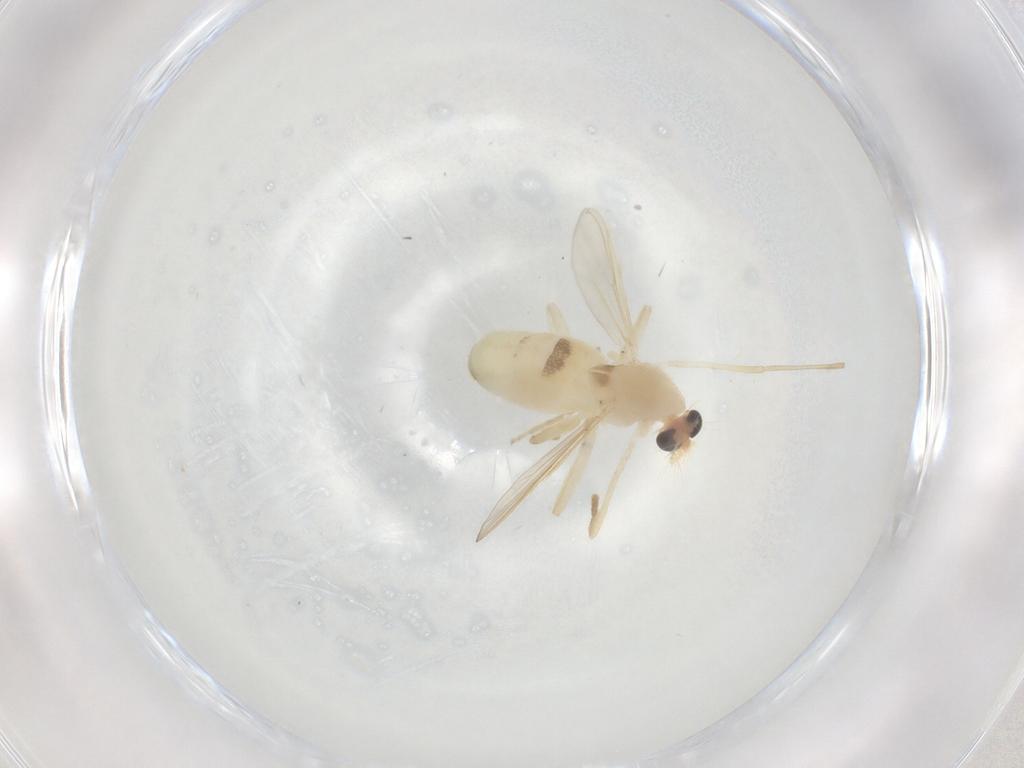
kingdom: Animalia
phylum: Arthropoda
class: Insecta
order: Diptera
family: Chironomidae
